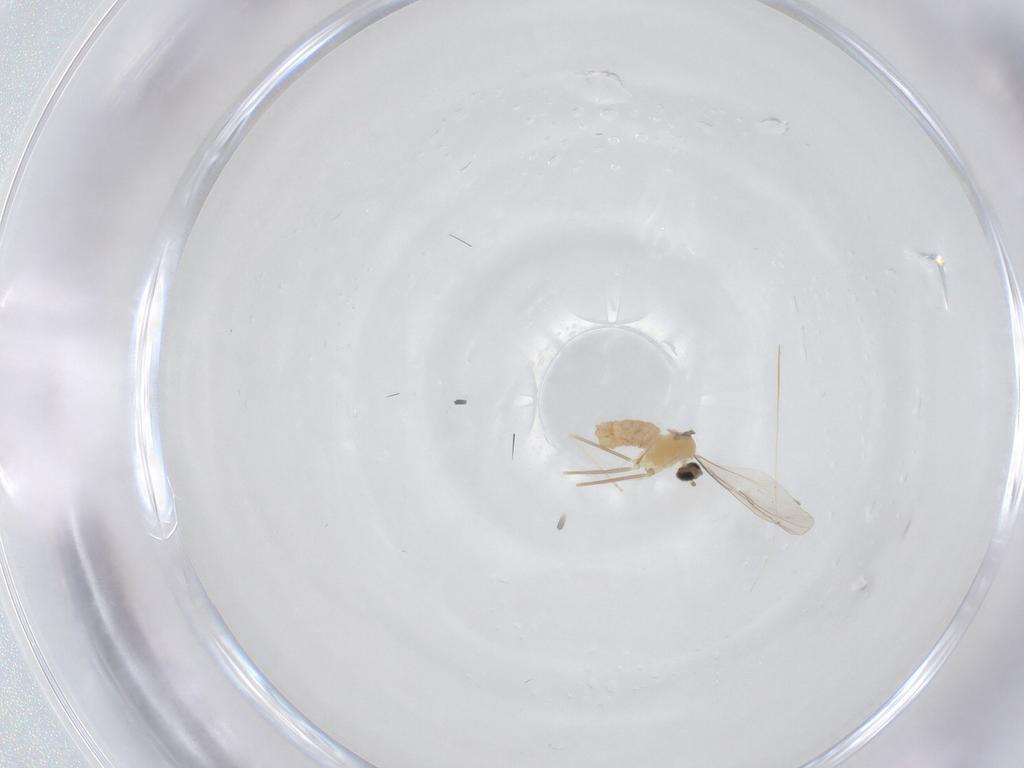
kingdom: Animalia
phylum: Arthropoda
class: Insecta
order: Diptera
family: Cecidomyiidae
